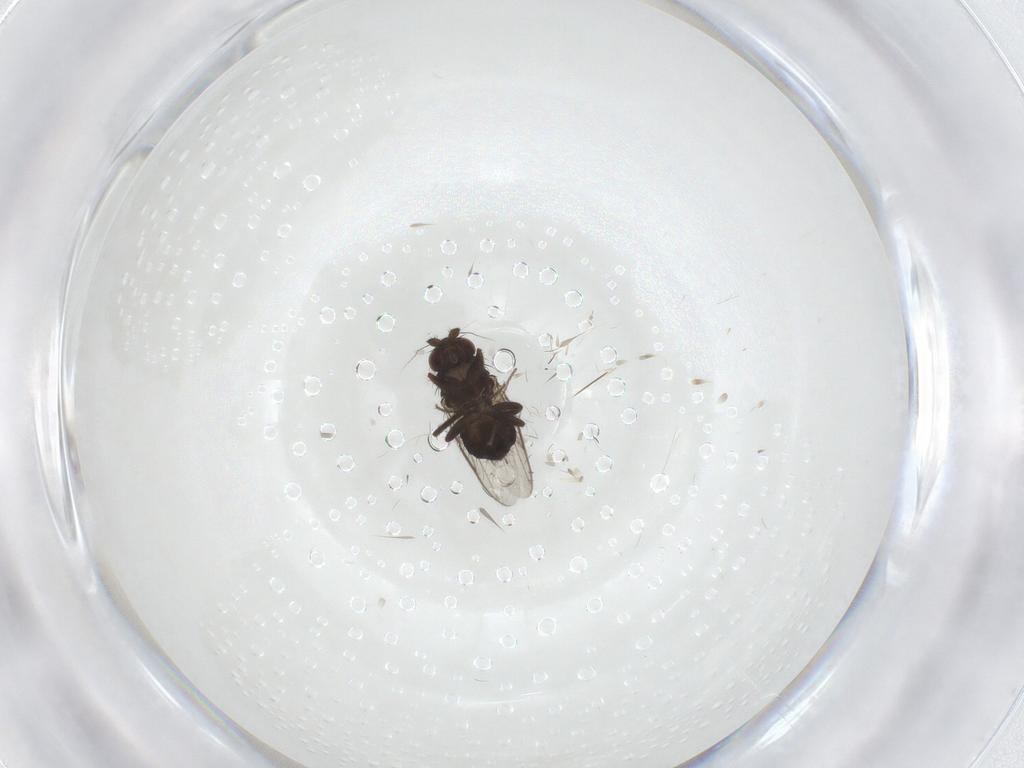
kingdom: Animalia
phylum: Arthropoda
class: Insecta
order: Diptera
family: Sphaeroceridae
